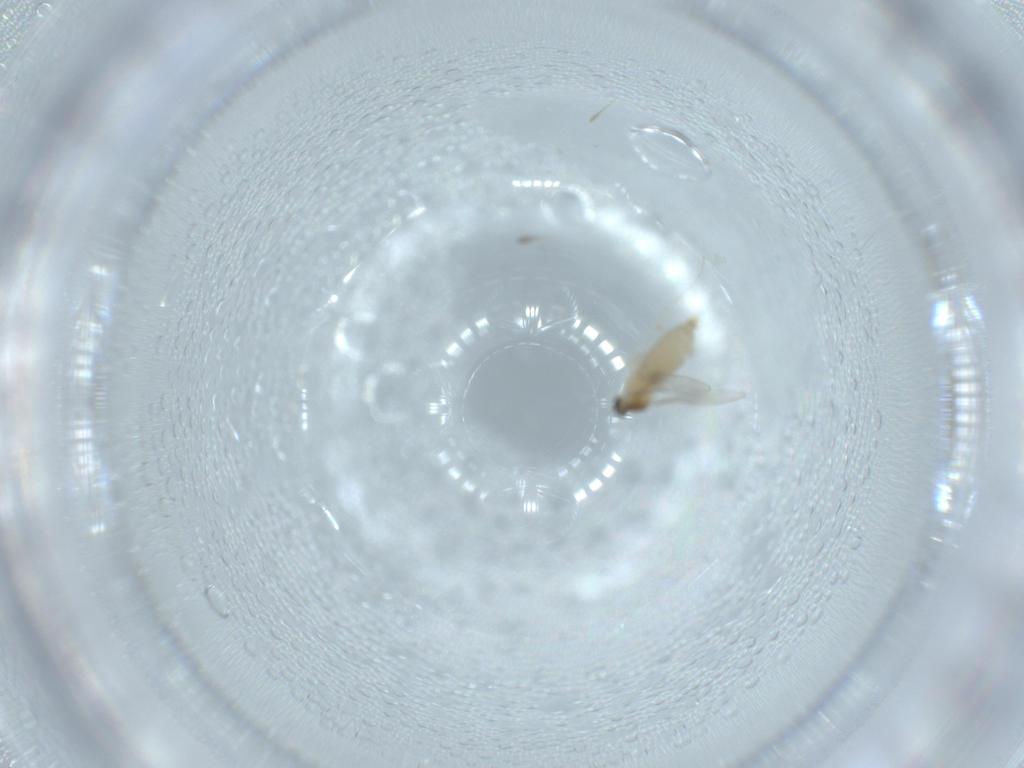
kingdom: Animalia
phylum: Arthropoda
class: Insecta
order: Diptera
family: Cecidomyiidae
